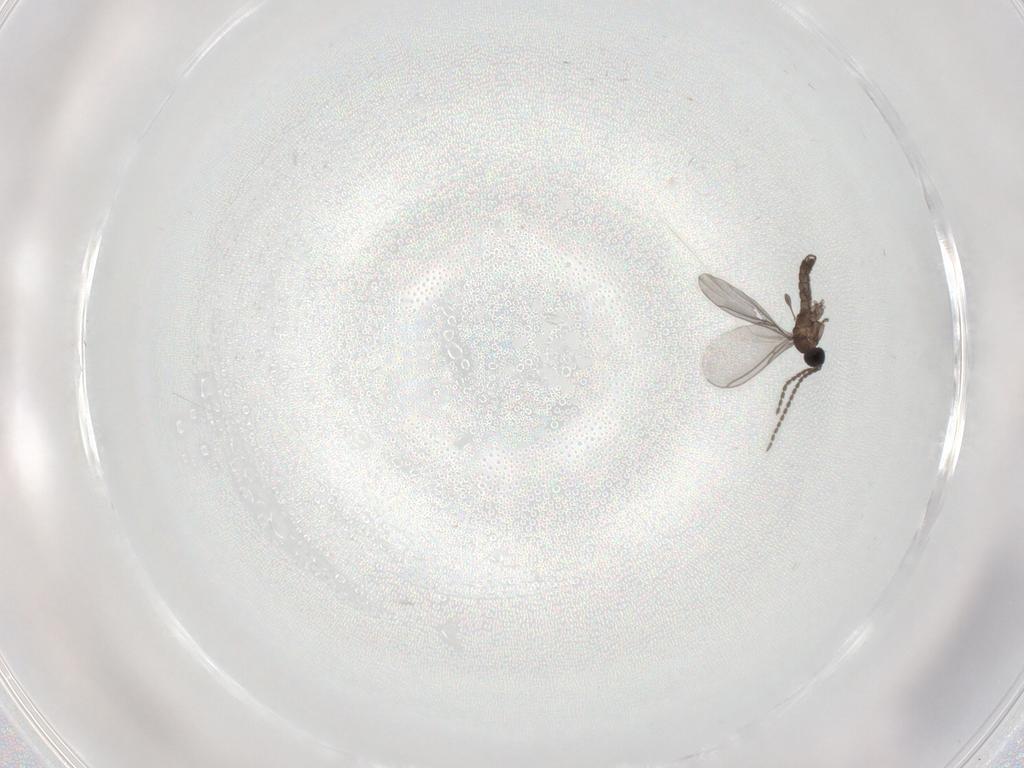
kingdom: Animalia
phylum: Arthropoda
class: Insecta
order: Diptera
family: Sciaridae
